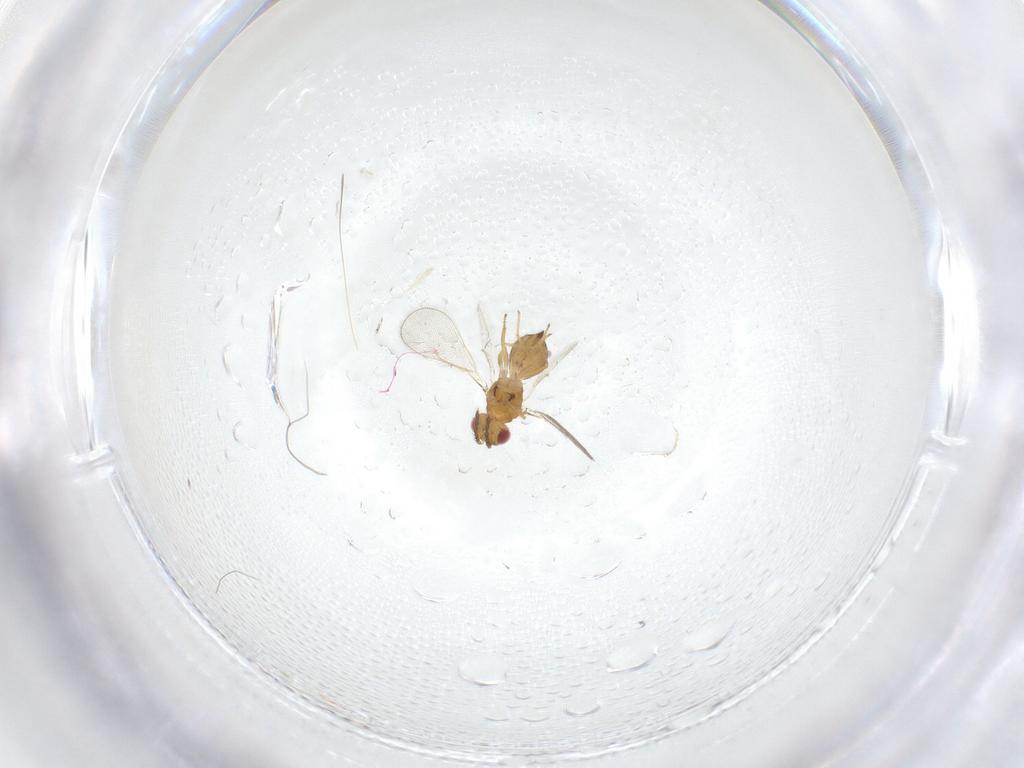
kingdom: Animalia
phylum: Arthropoda
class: Insecta
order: Hymenoptera
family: Eulophidae
